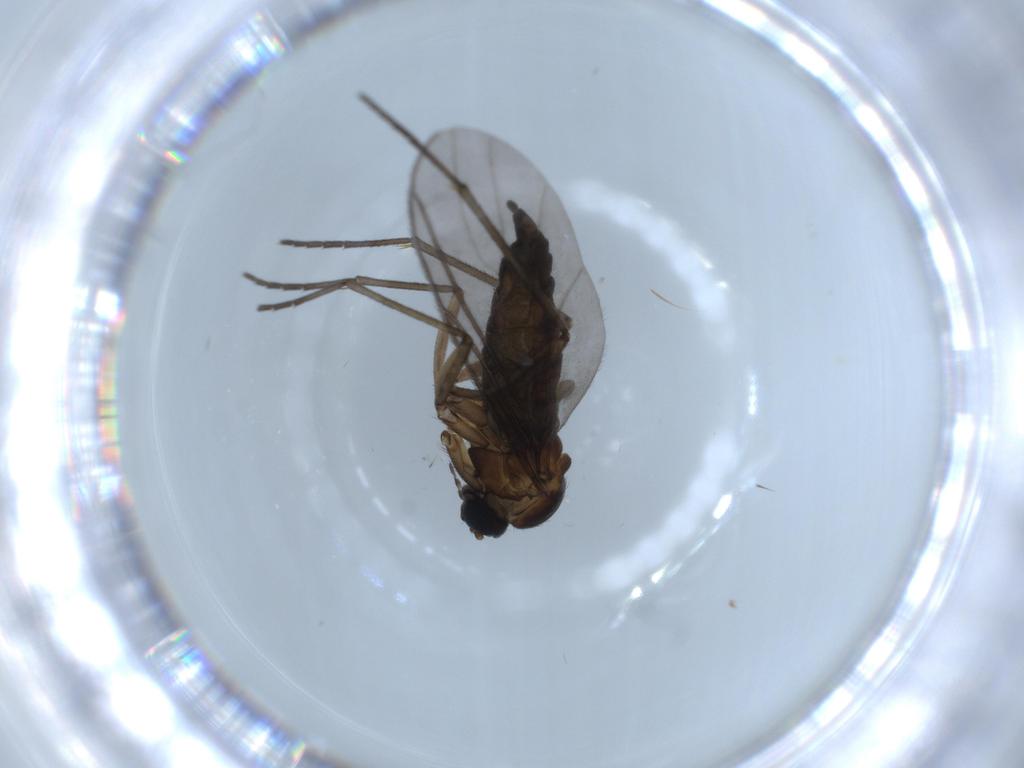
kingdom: Animalia
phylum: Arthropoda
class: Insecta
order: Diptera
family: Sciaridae
